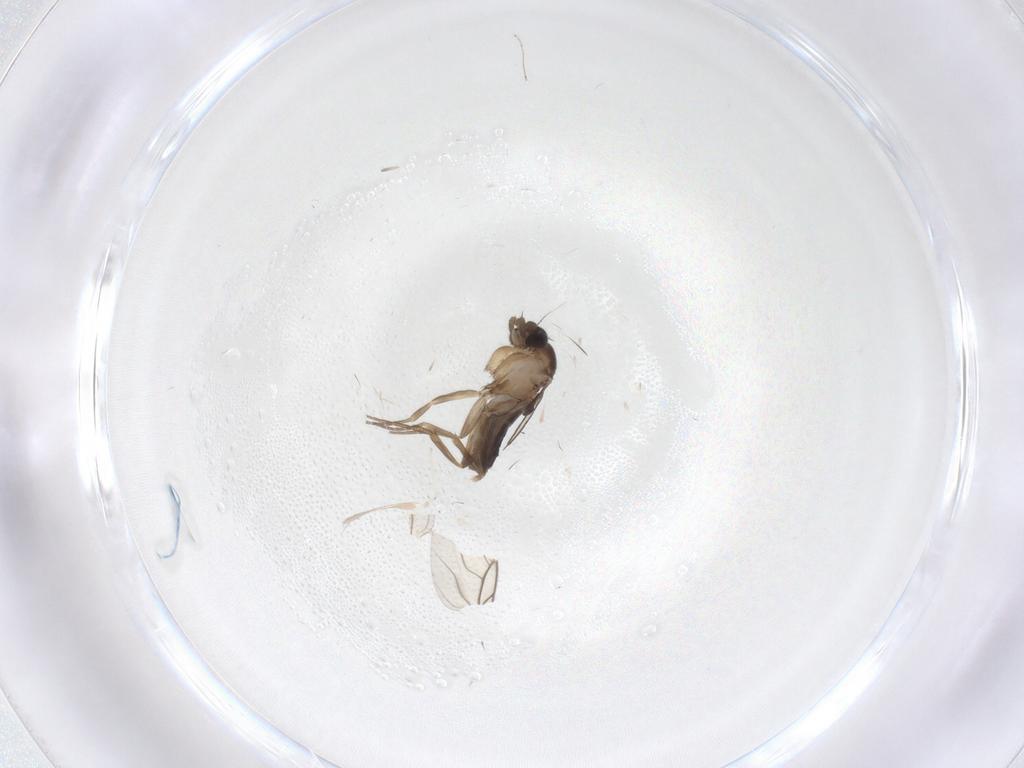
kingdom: Animalia
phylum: Arthropoda
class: Insecta
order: Diptera
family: Phoridae
